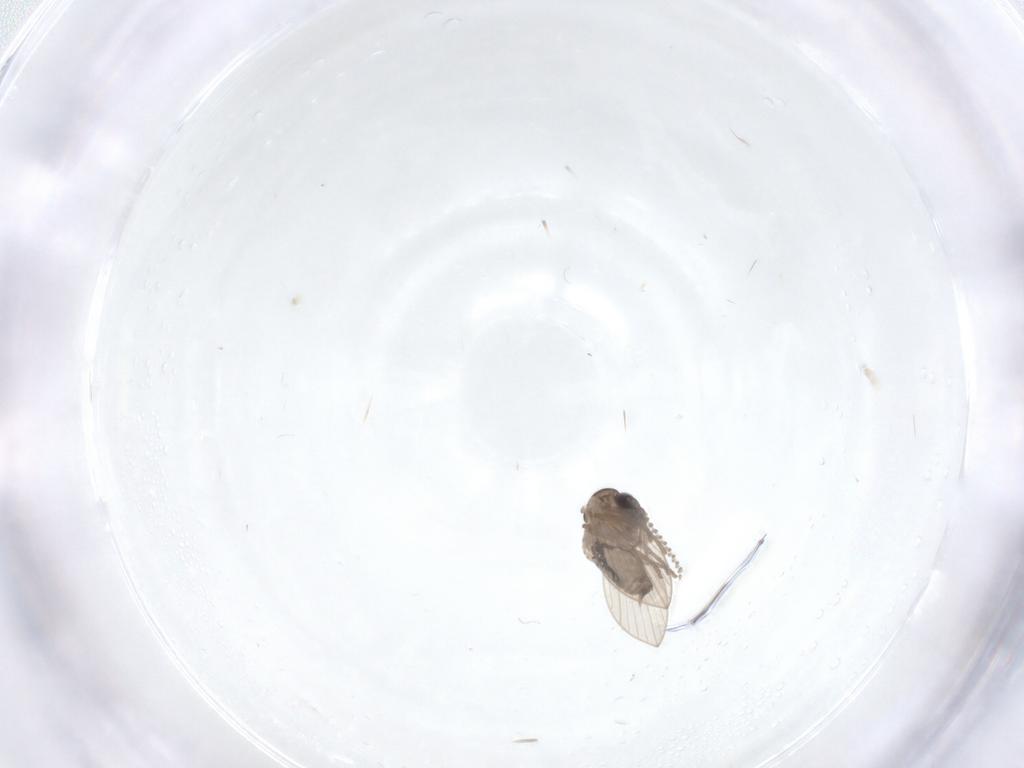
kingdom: Animalia
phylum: Arthropoda
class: Insecta
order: Diptera
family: Psychodidae
